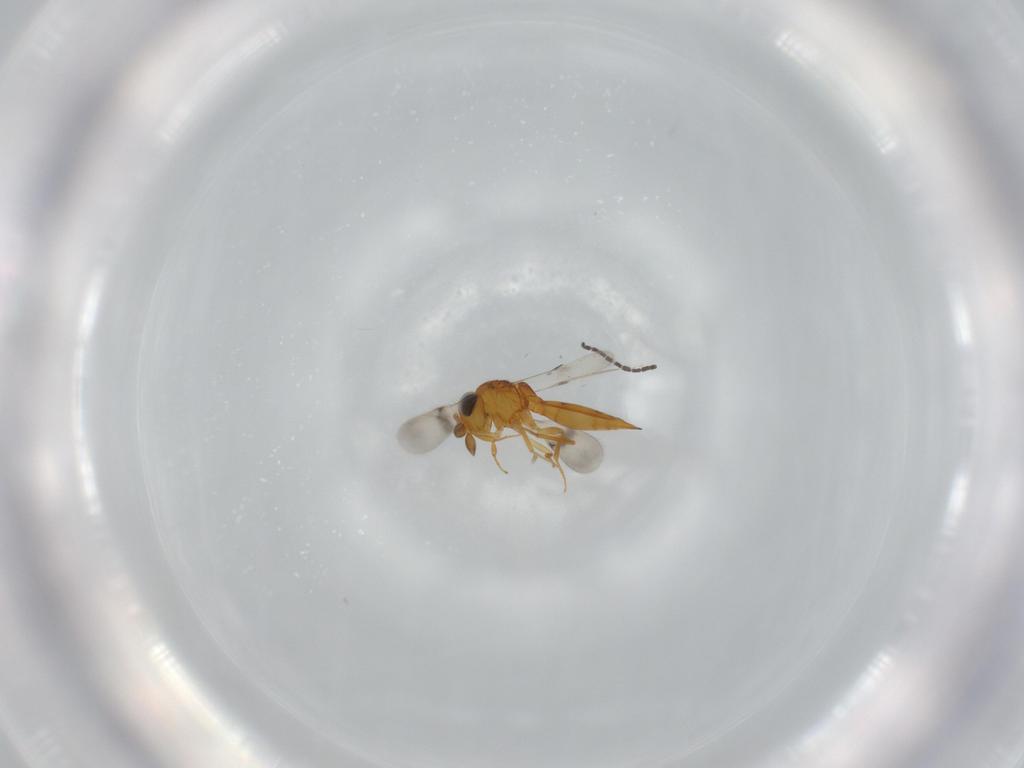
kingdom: Animalia
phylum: Arthropoda
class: Insecta
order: Hymenoptera
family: Scelionidae
